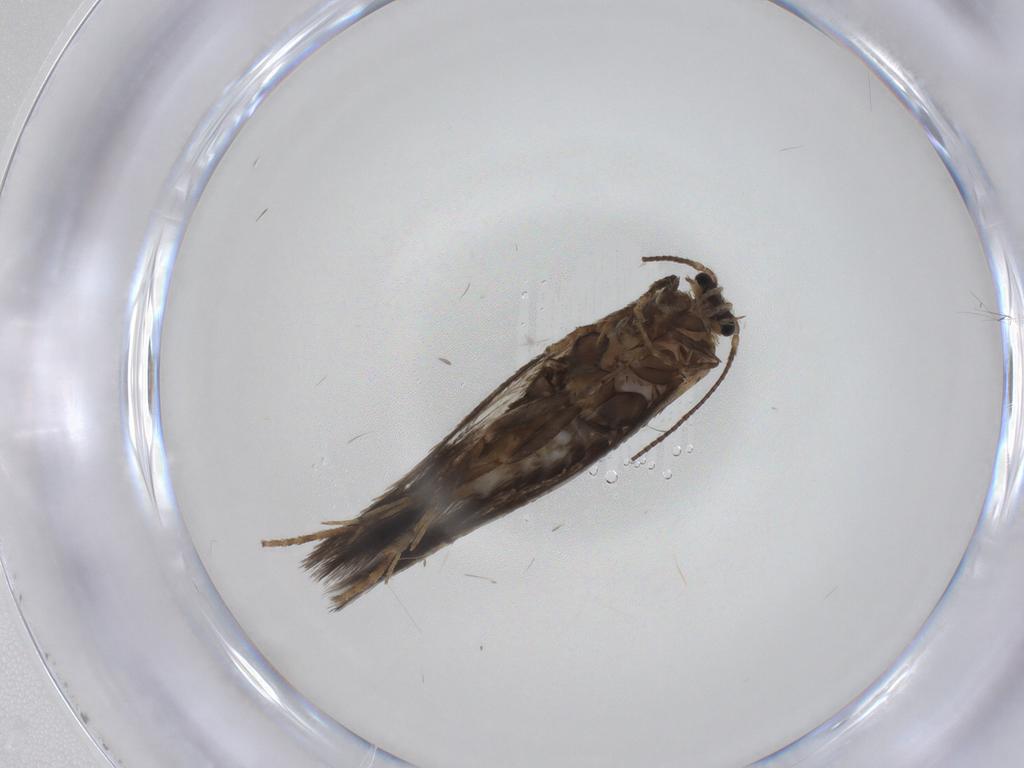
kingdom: Animalia
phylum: Arthropoda
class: Insecta
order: Lepidoptera
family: Nepticulidae
